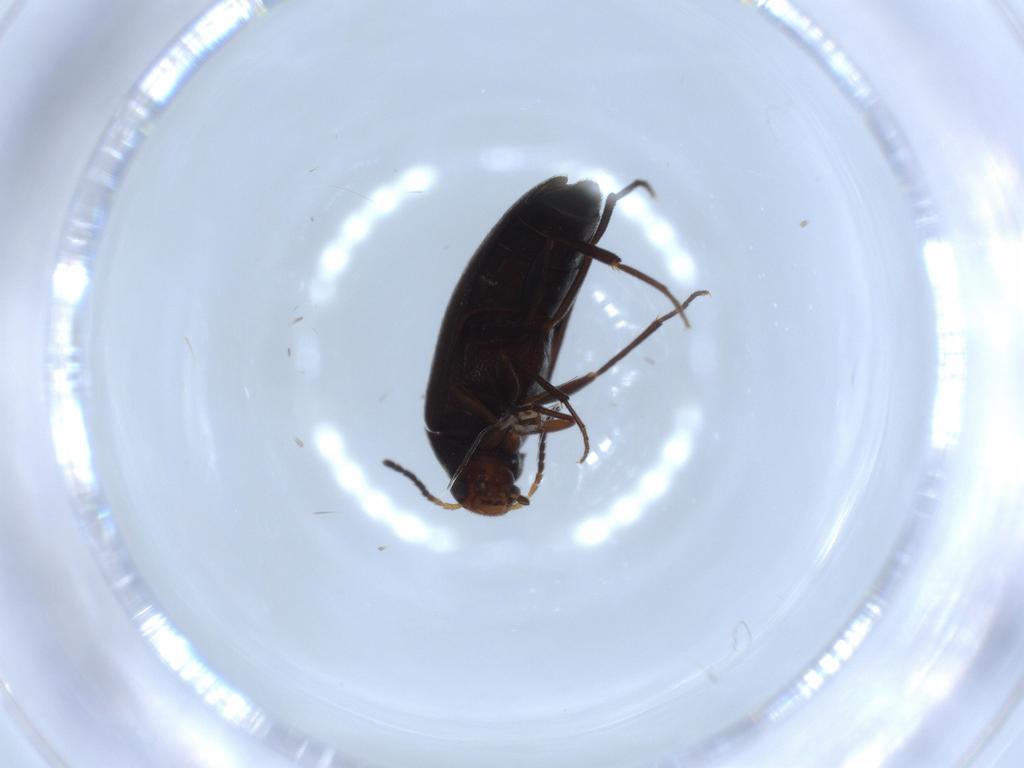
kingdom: Animalia
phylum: Arthropoda
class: Insecta
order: Coleoptera
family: Melandryidae
